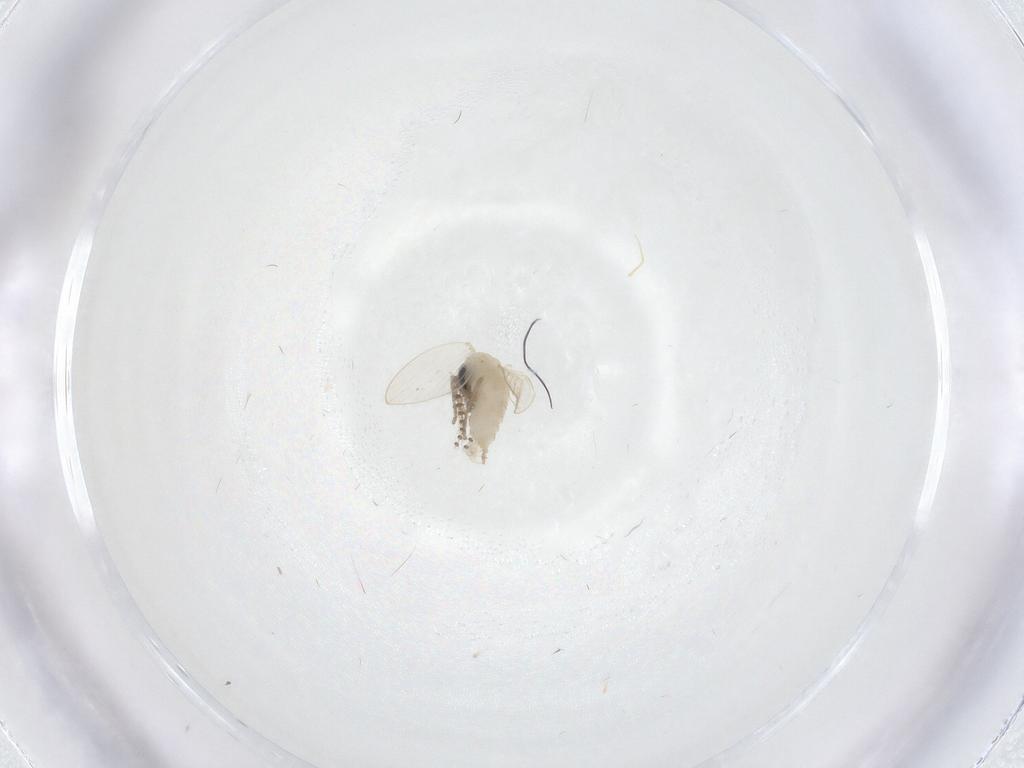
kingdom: Animalia
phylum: Arthropoda
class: Insecta
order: Diptera
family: Psychodidae
